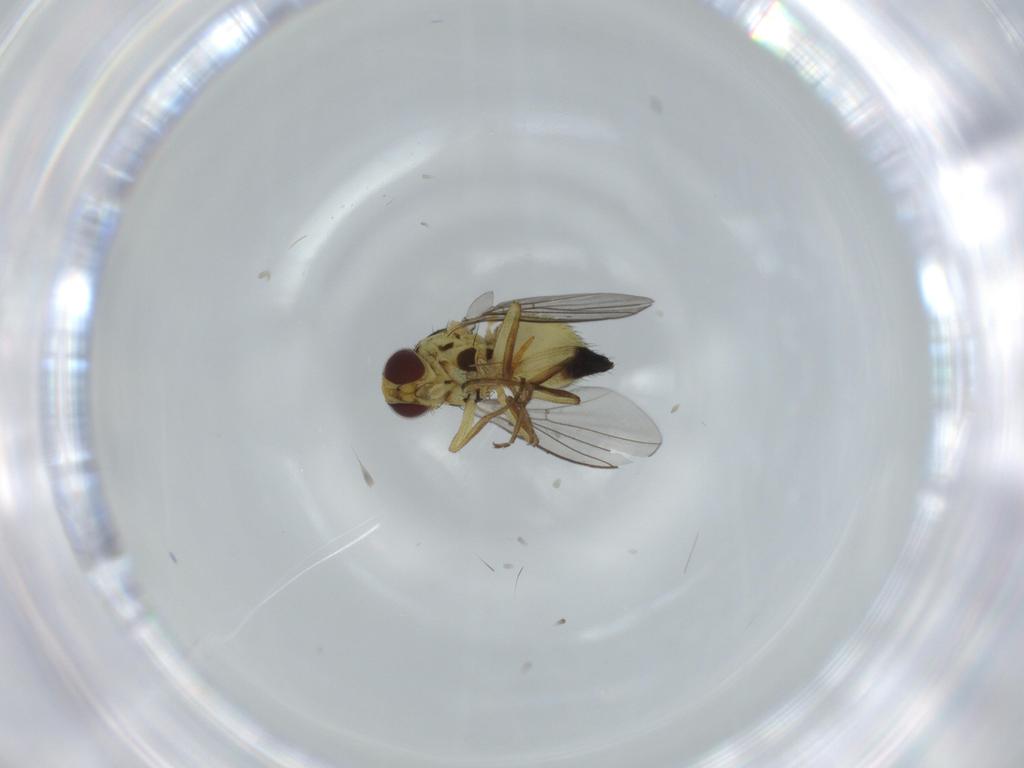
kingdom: Animalia
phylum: Arthropoda
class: Insecta
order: Diptera
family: Agromyzidae
